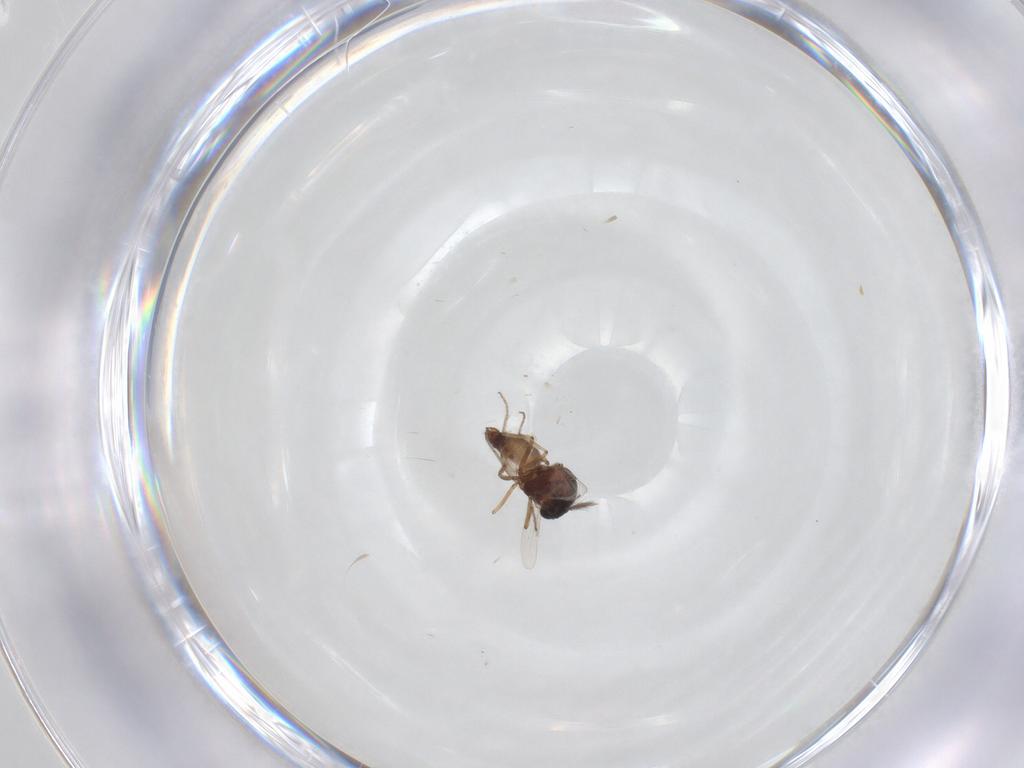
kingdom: Animalia
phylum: Arthropoda
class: Insecta
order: Diptera
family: Ceratopogonidae
